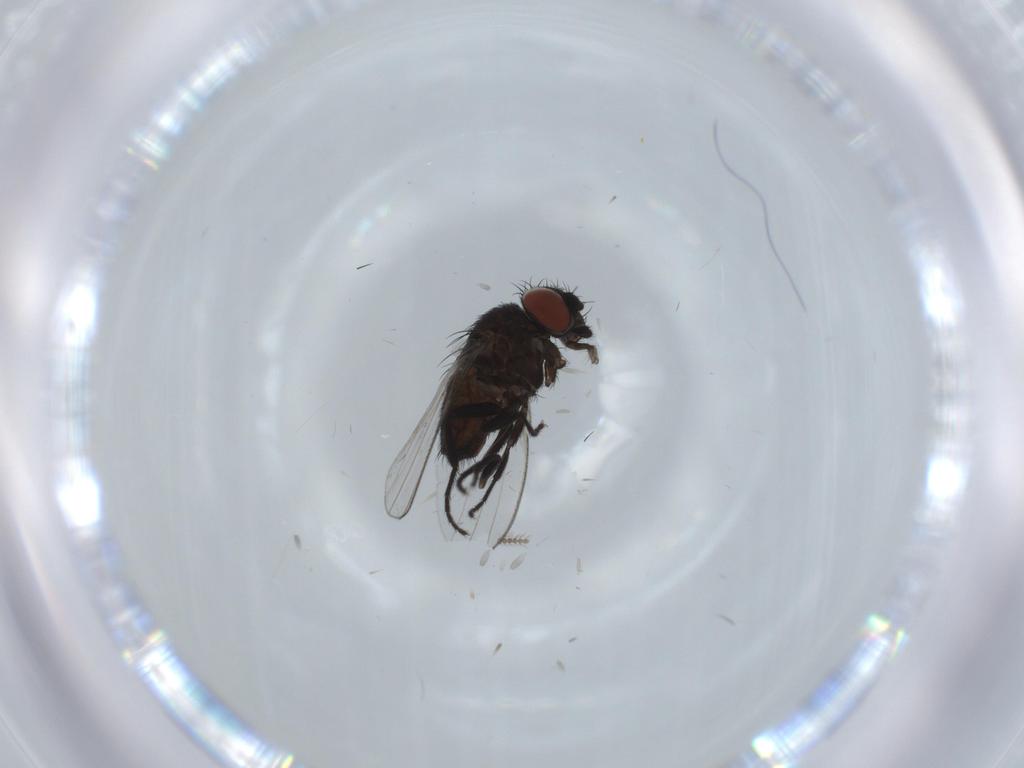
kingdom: Animalia
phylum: Arthropoda
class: Insecta
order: Diptera
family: Milichiidae
